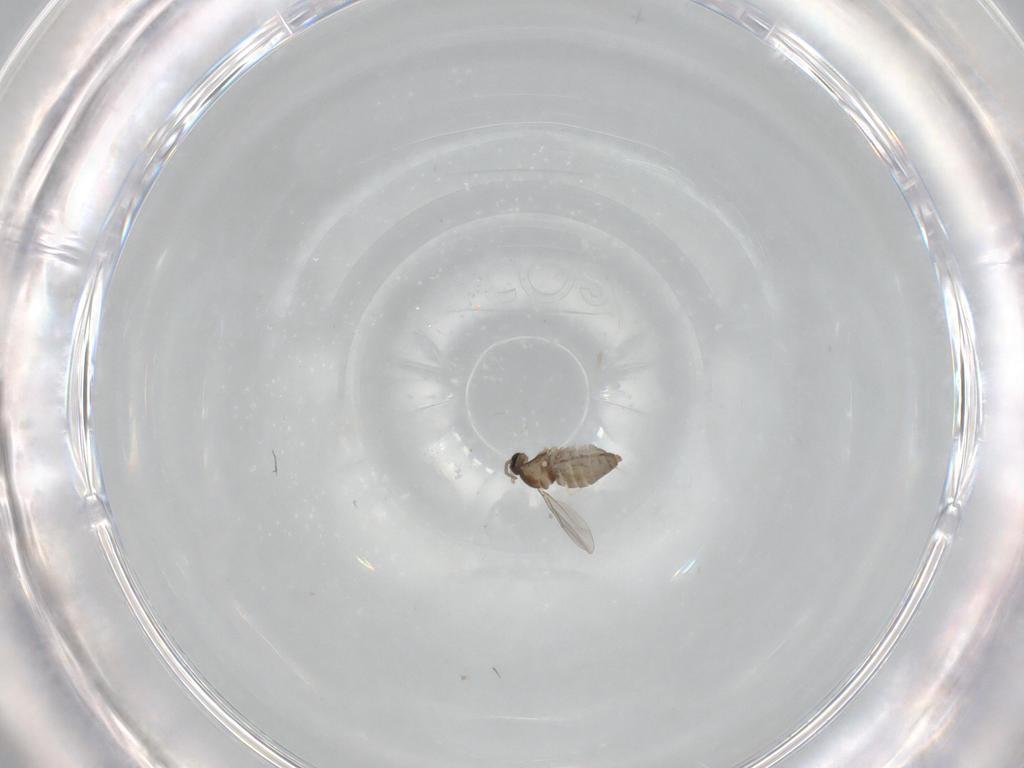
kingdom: Animalia
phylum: Arthropoda
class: Insecta
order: Diptera
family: Cecidomyiidae
